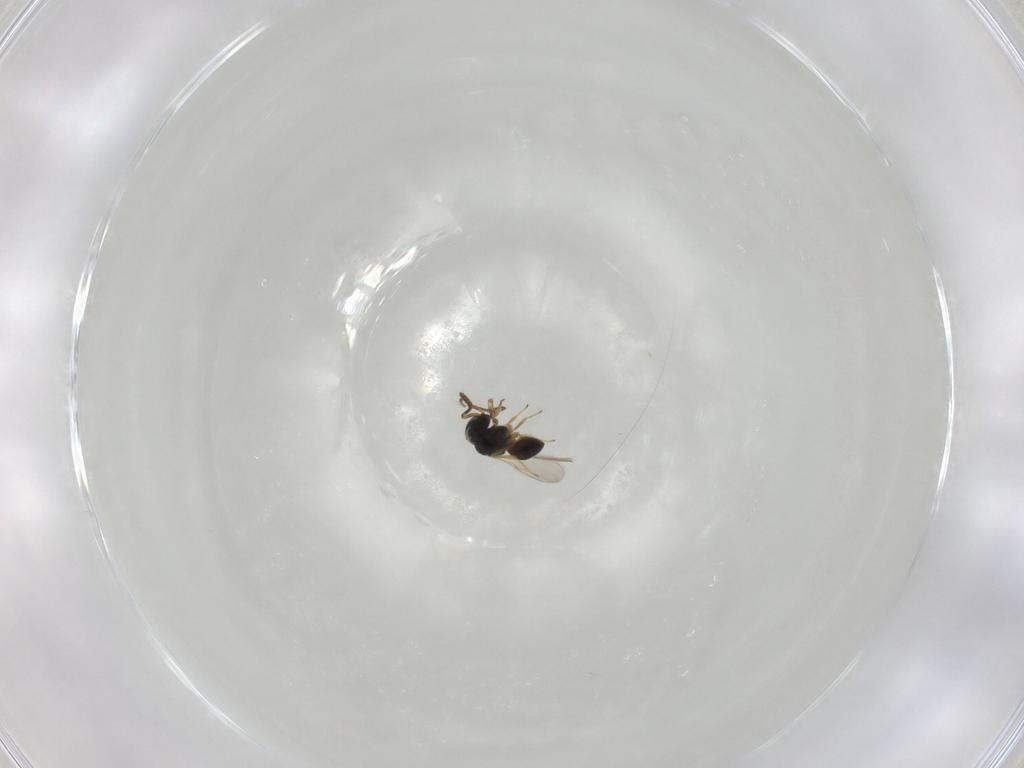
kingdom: Animalia
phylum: Arthropoda
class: Insecta
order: Hymenoptera
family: Scelionidae
